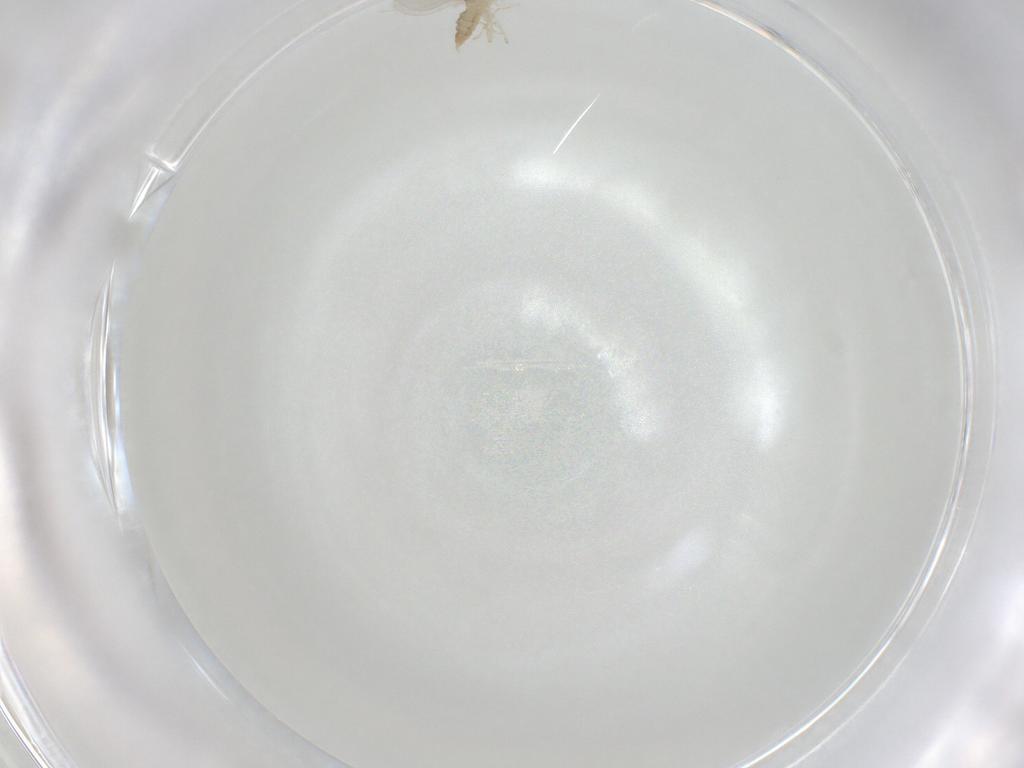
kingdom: Animalia
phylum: Arthropoda
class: Insecta
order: Diptera
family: Cecidomyiidae
